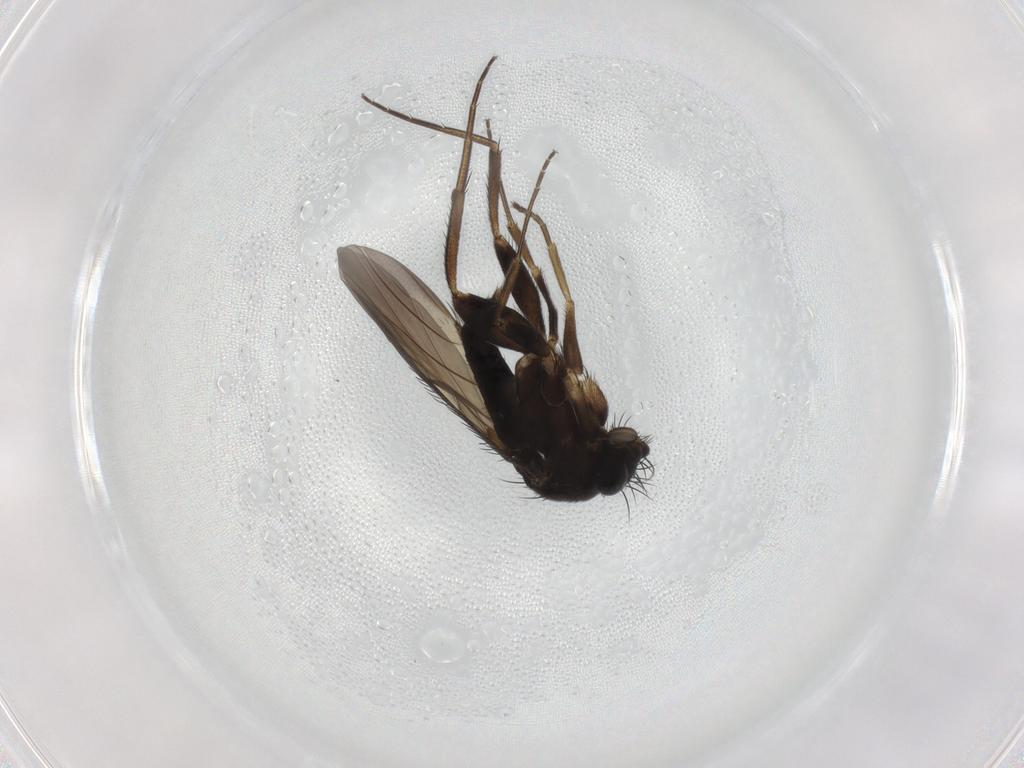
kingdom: Animalia
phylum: Arthropoda
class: Insecta
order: Diptera
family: Phoridae
